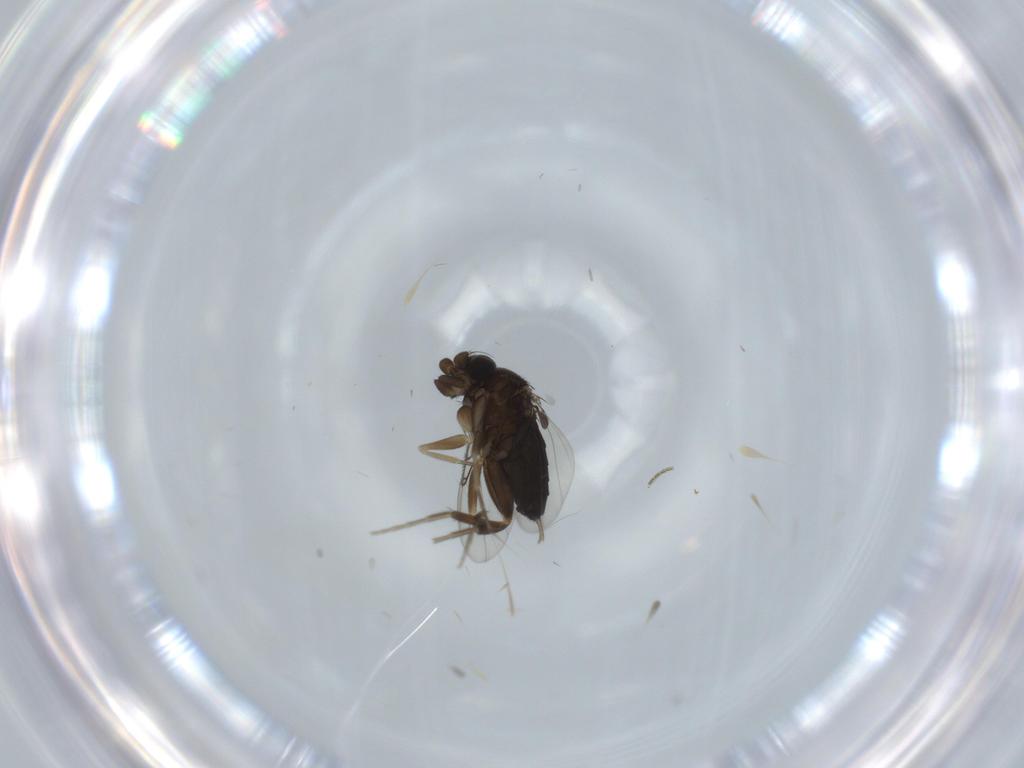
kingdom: Animalia
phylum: Arthropoda
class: Insecta
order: Diptera
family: Phoridae
